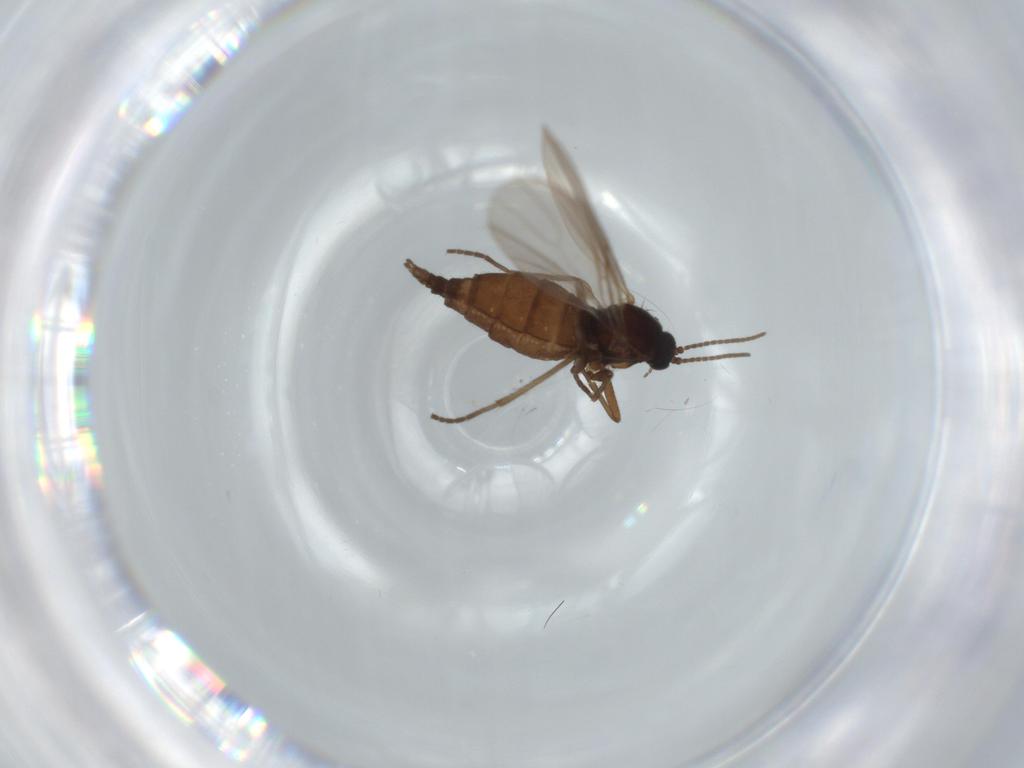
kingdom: Animalia
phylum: Arthropoda
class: Insecta
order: Diptera
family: Sciaridae
